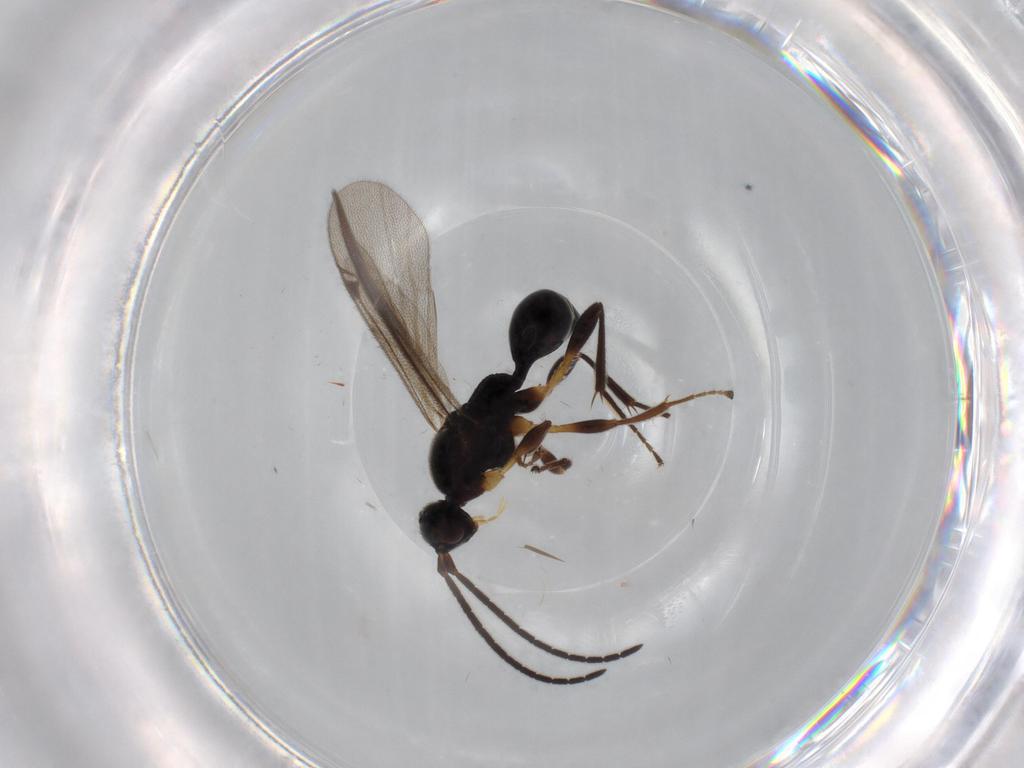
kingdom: Animalia
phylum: Arthropoda
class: Insecta
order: Hymenoptera
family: Proctotrupidae
